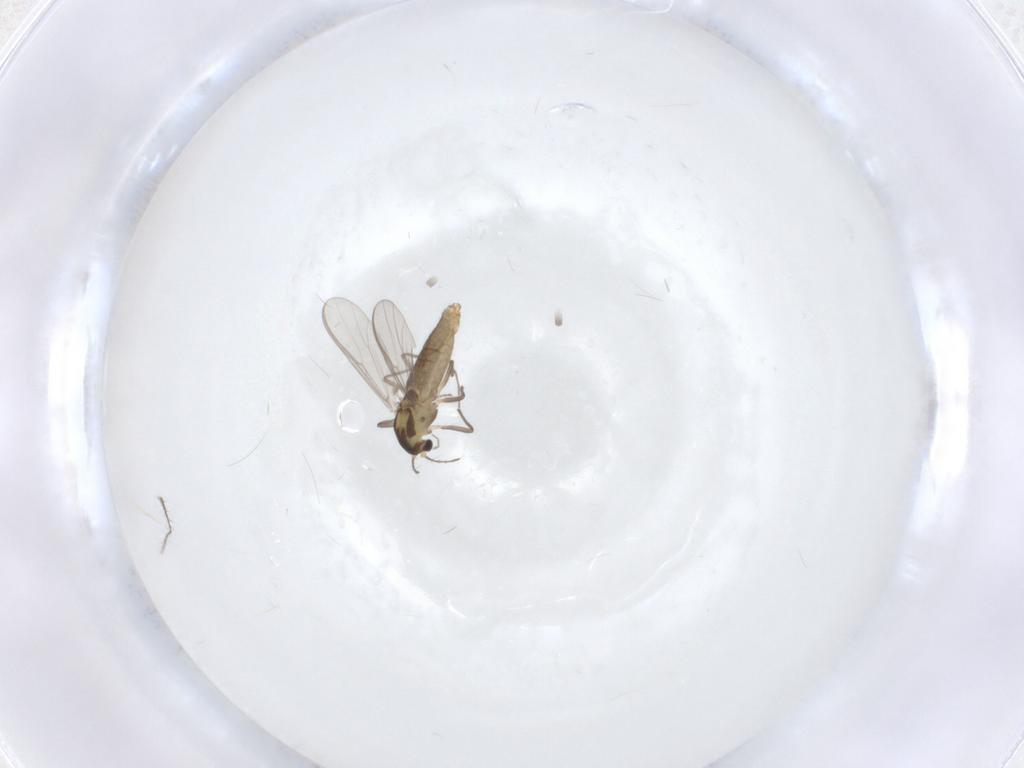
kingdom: Animalia
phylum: Arthropoda
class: Insecta
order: Diptera
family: Chironomidae
